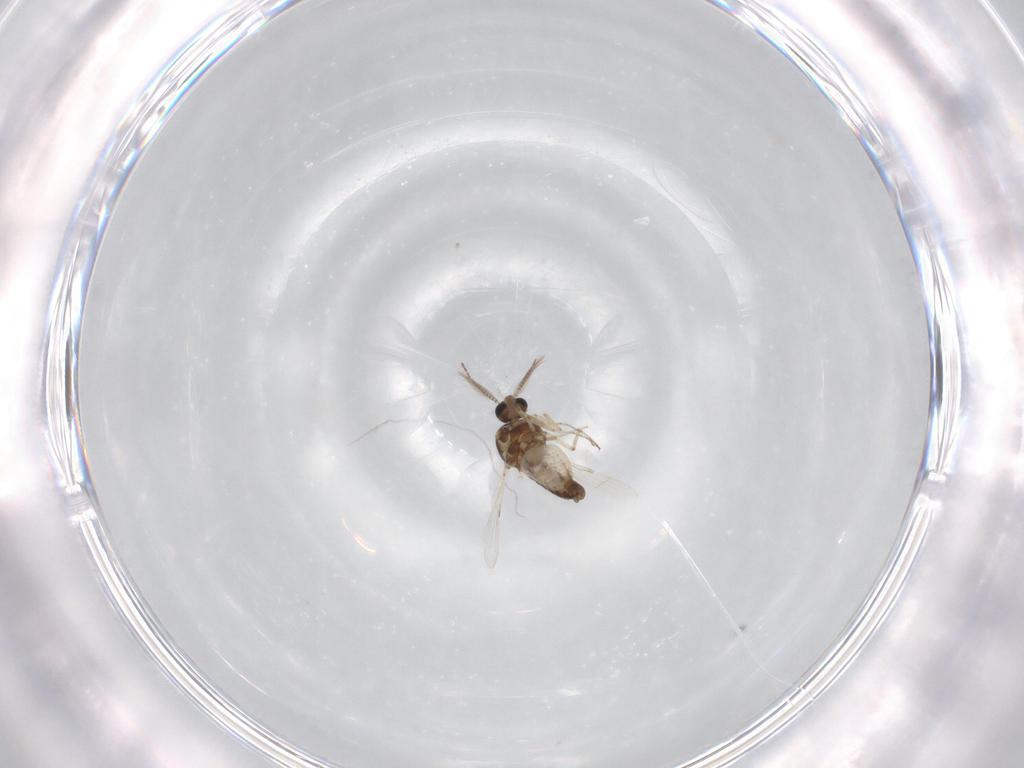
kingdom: Animalia
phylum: Arthropoda
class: Insecta
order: Diptera
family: Ceratopogonidae
